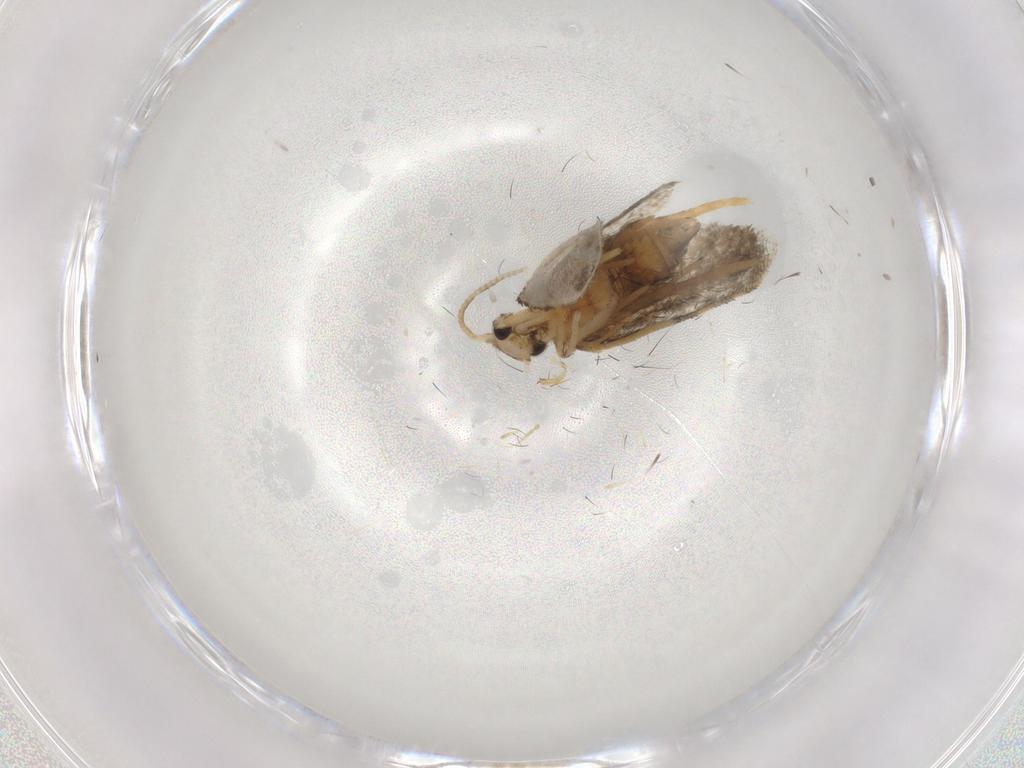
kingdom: Animalia
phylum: Arthropoda
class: Insecta
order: Lepidoptera
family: Psychidae
